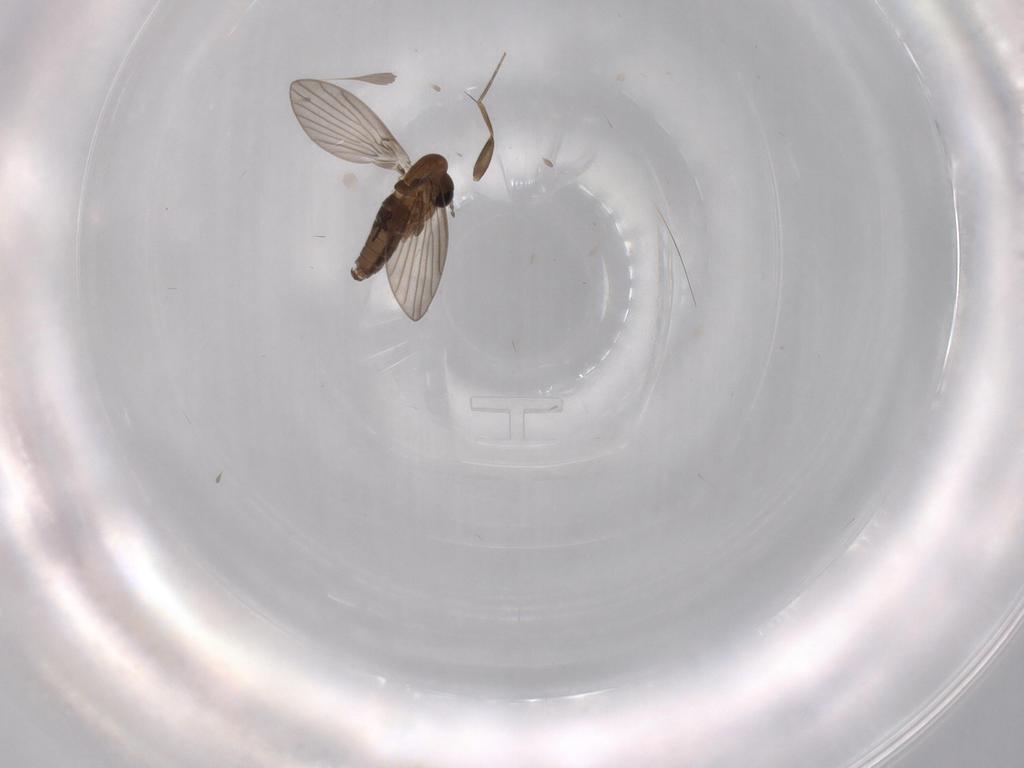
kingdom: Animalia
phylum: Arthropoda
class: Insecta
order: Diptera
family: Psychodidae
